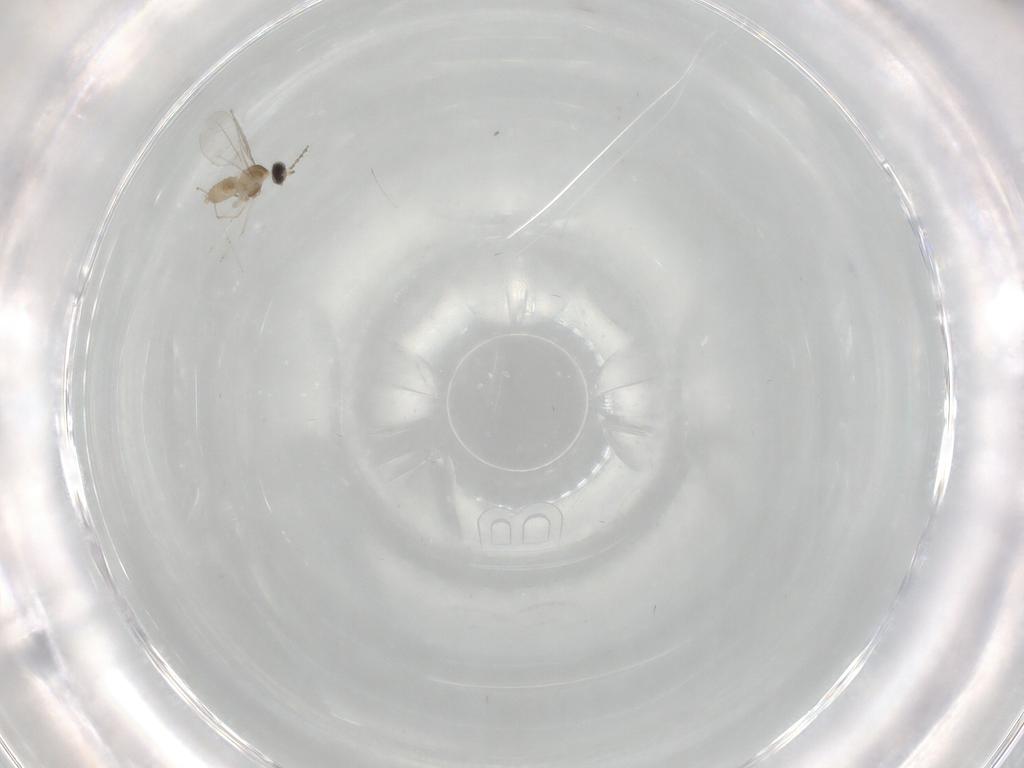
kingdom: Animalia
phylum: Arthropoda
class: Insecta
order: Diptera
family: Cecidomyiidae
